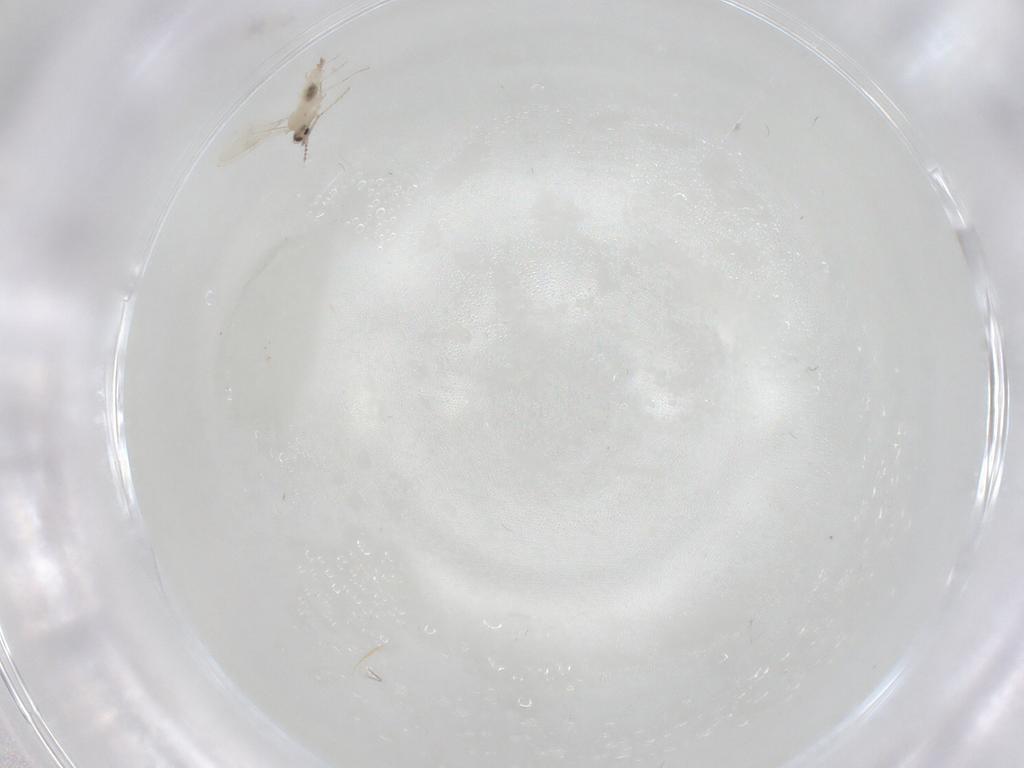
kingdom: Animalia
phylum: Arthropoda
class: Insecta
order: Diptera
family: Cecidomyiidae
